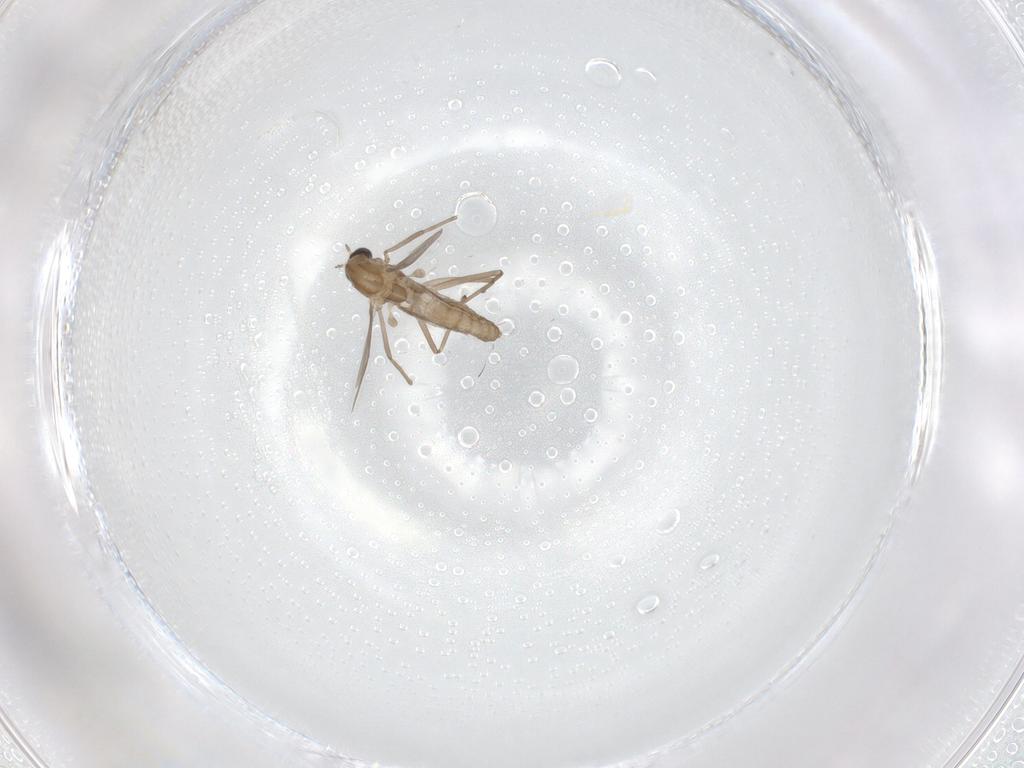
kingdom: Animalia
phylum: Arthropoda
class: Insecta
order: Diptera
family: Chironomidae
